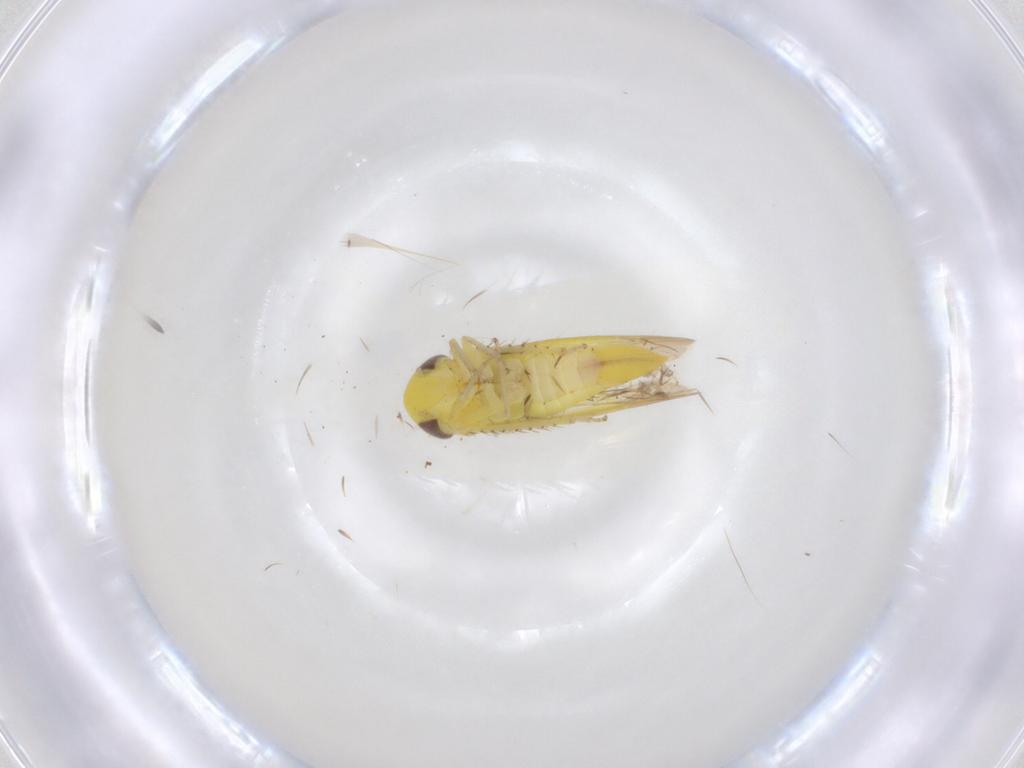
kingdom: Animalia
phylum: Arthropoda
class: Insecta
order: Hemiptera
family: Cicadellidae
